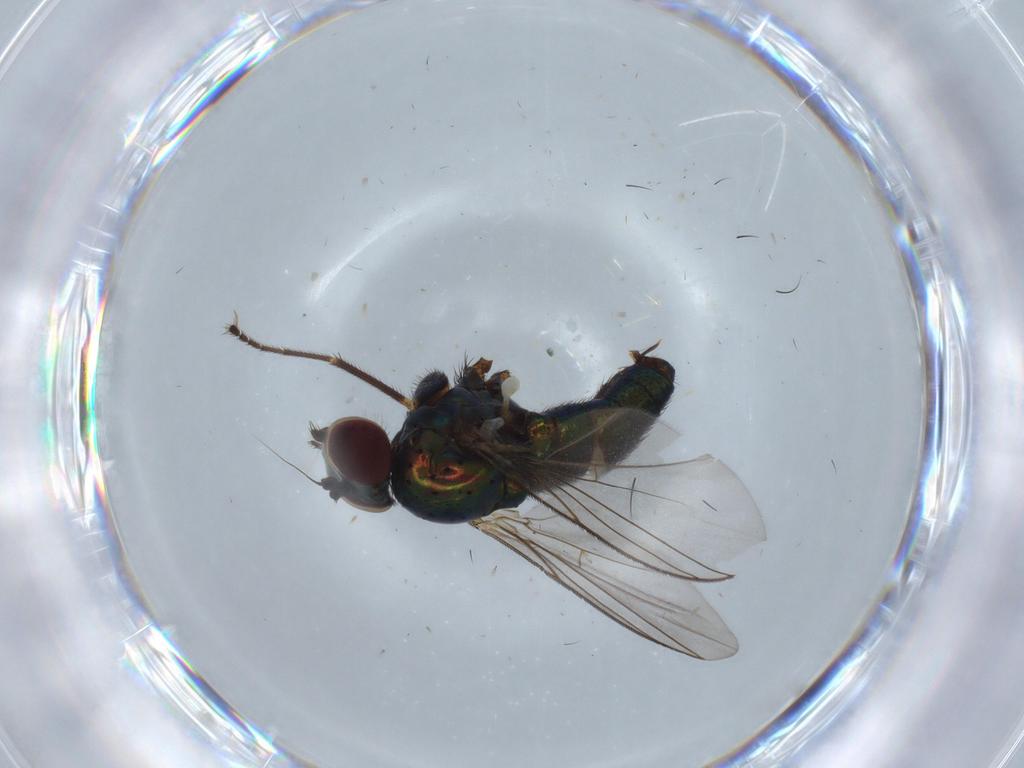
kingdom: Animalia
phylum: Arthropoda
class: Insecta
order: Diptera
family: Dolichopodidae
